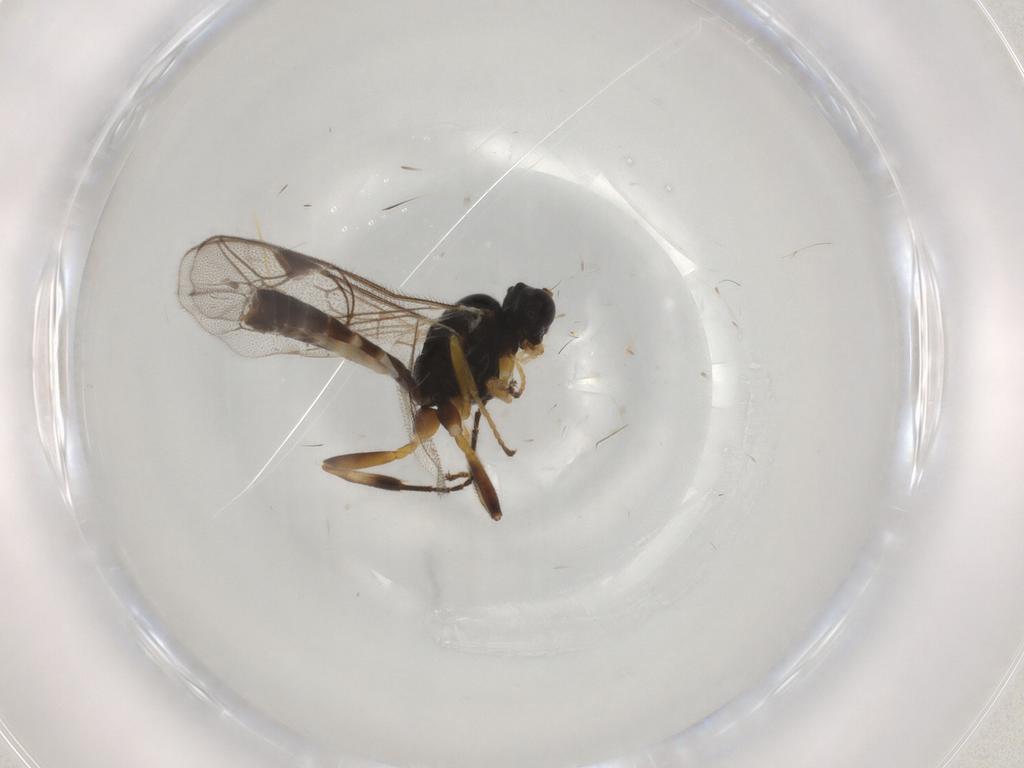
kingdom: Animalia
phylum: Arthropoda
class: Insecta
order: Hymenoptera
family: Ichneumonidae
